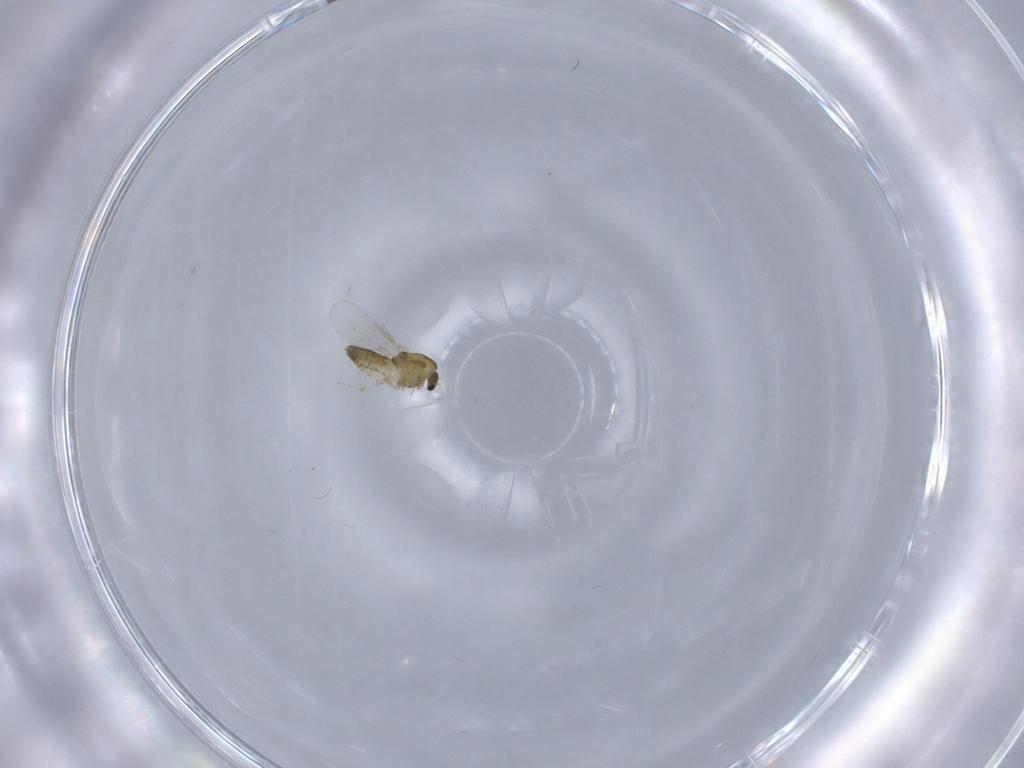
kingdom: Animalia
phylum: Arthropoda
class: Insecta
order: Diptera
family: Chironomidae
